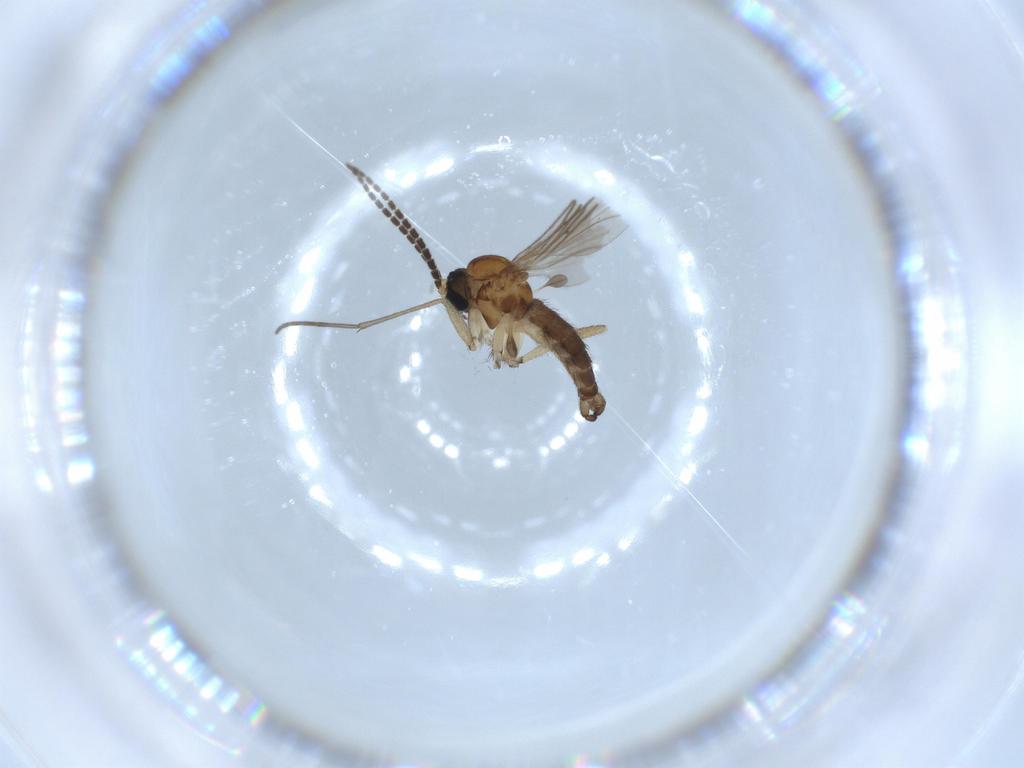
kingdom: Animalia
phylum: Arthropoda
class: Insecta
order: Diptera
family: Sciaridae
